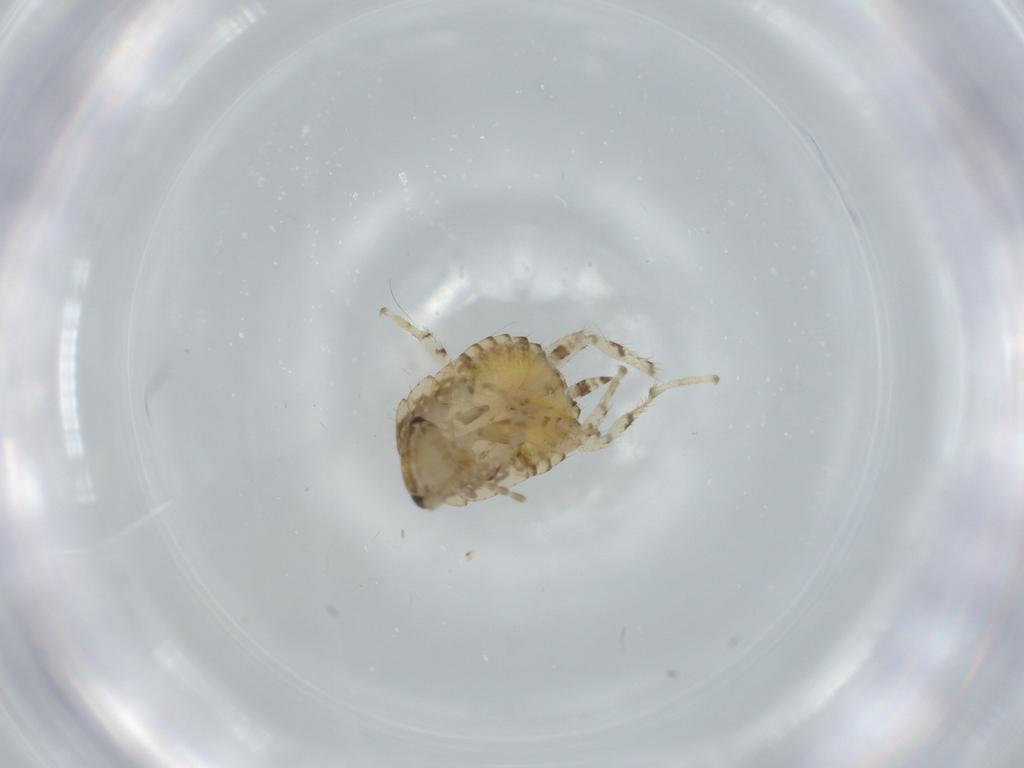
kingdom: Animalia
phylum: Arthropoda
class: Insecta
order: Blattodea
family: Ectobiidae
